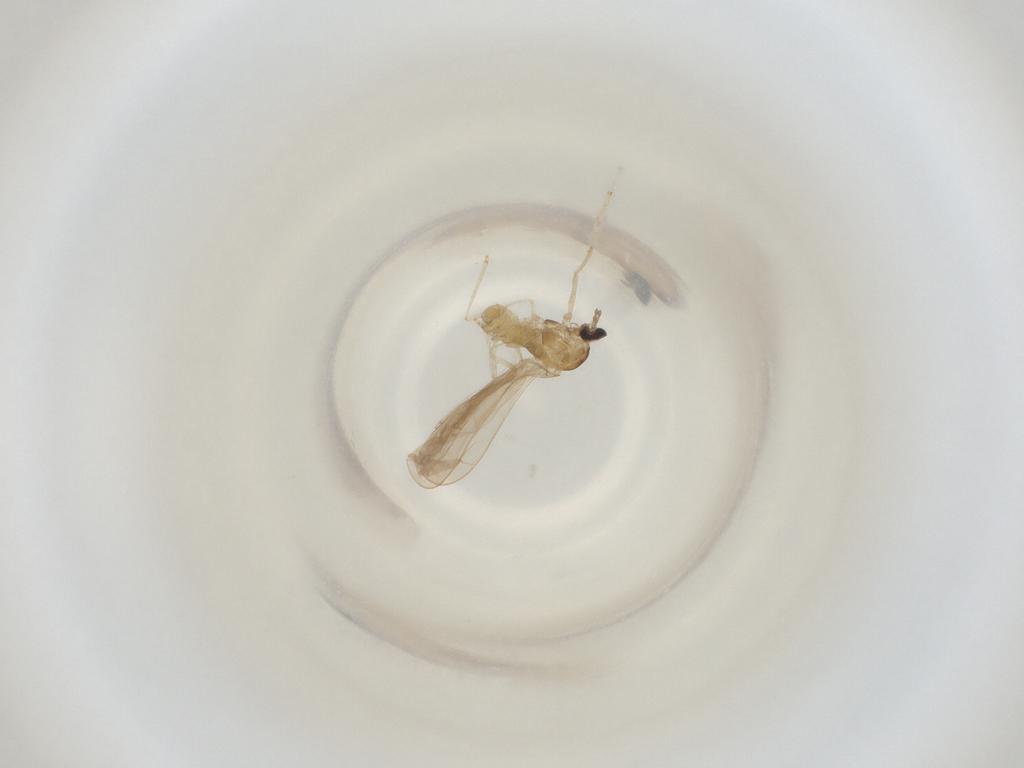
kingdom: Animalia
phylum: Arthropoda
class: Insecta
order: Diptera
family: Cecidomyiidae
